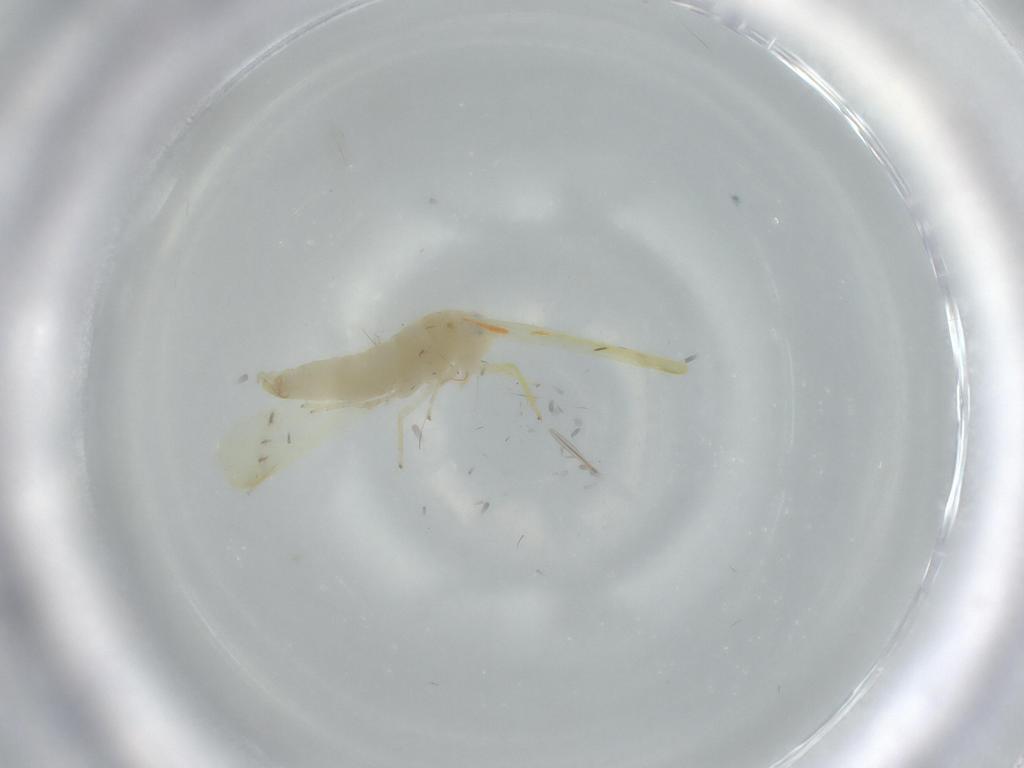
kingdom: Animalia
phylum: Arthropoda
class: Insecta
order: Hemiptera
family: Cicadellidae
